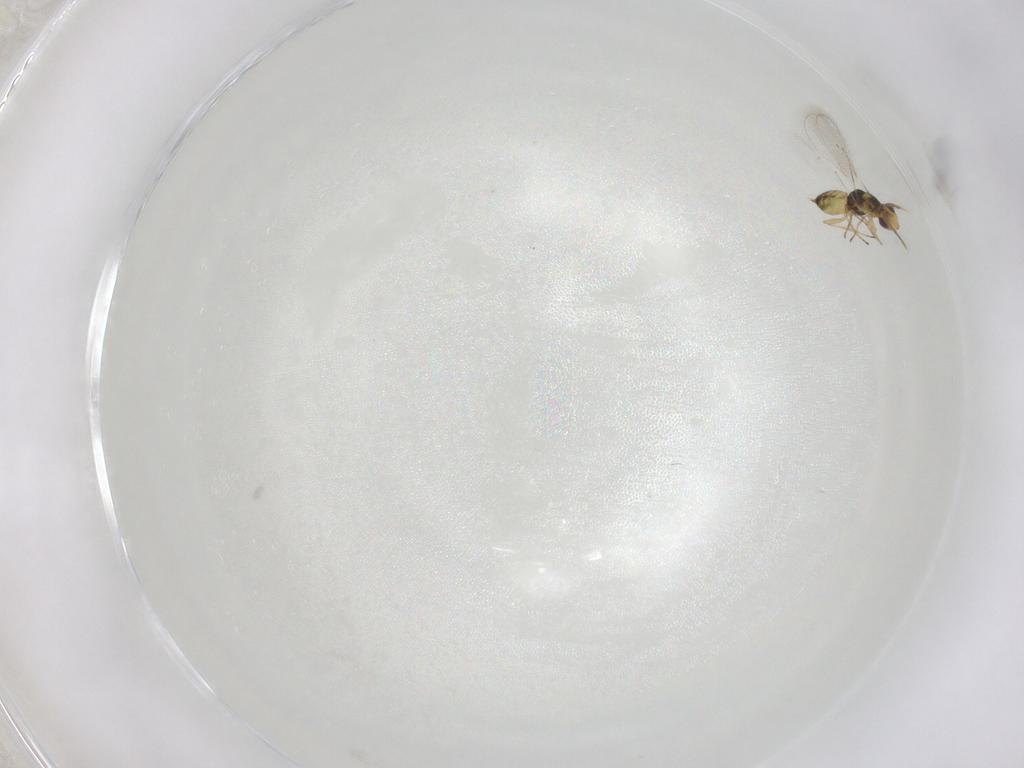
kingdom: Animalia
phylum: Arthropoda
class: Insecta
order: Hymenoptera
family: Eulophidae
